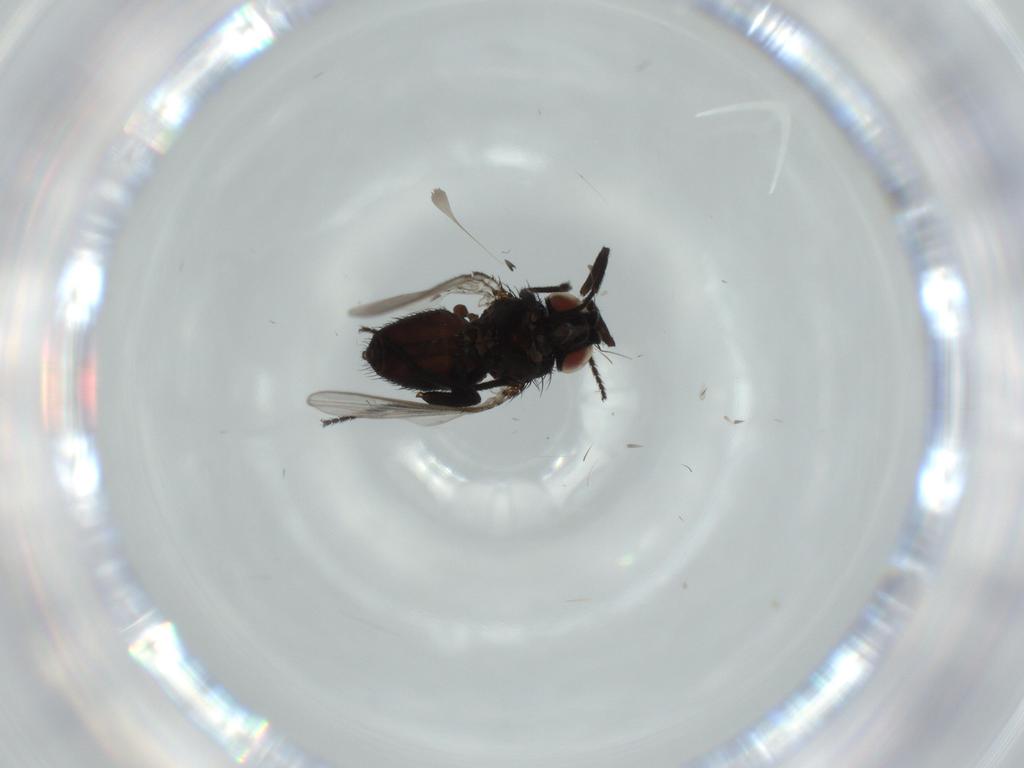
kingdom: Animalia
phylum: Arthropoda
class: Insecta
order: Diptera
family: Milichiidae
